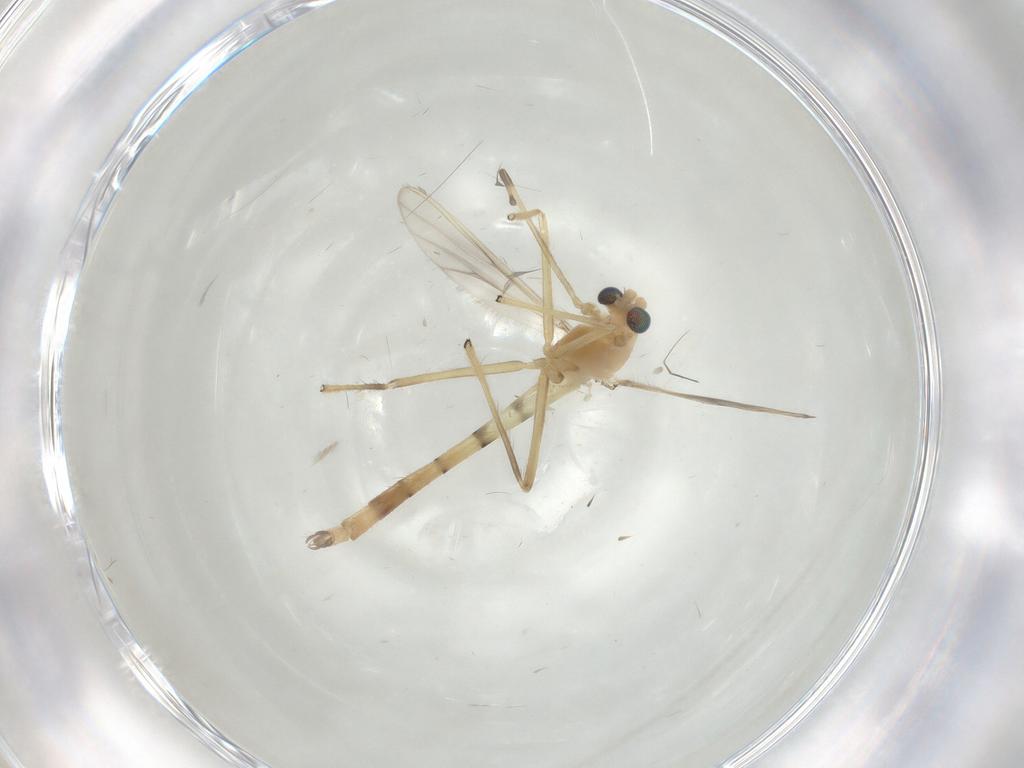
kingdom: Animalia
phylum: Arthropoda
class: Insecta
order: Diptera
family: Chironomidae
